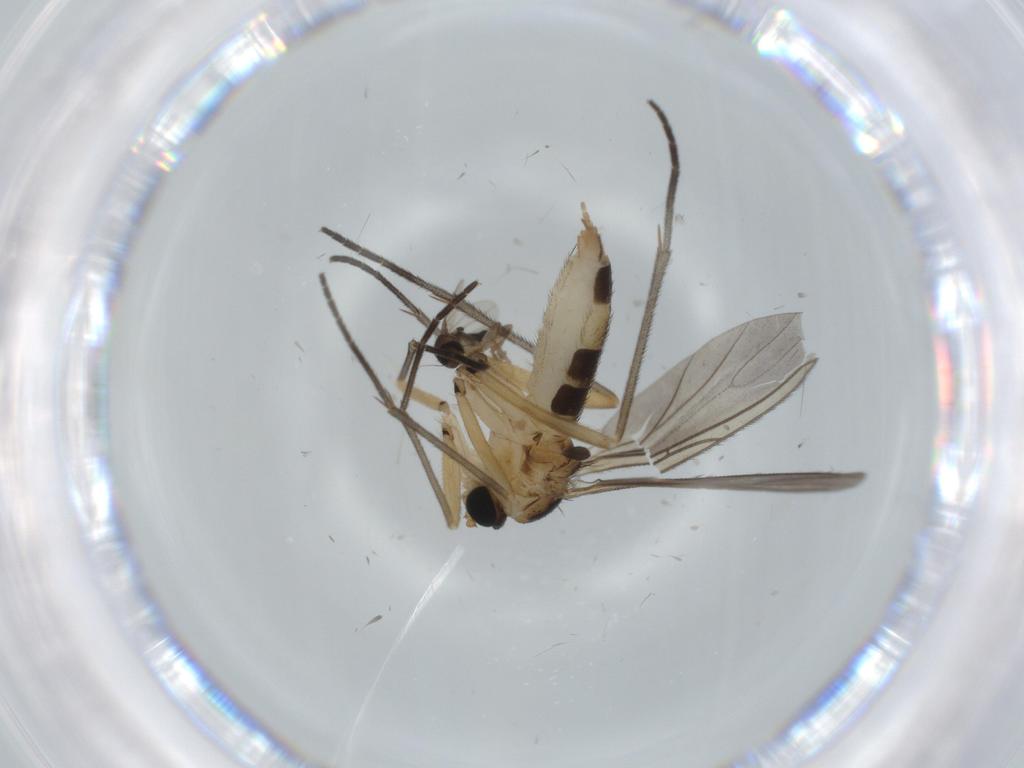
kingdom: Animalia
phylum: Arthropoda
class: Insecta
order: Diptera
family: Sciaridae
